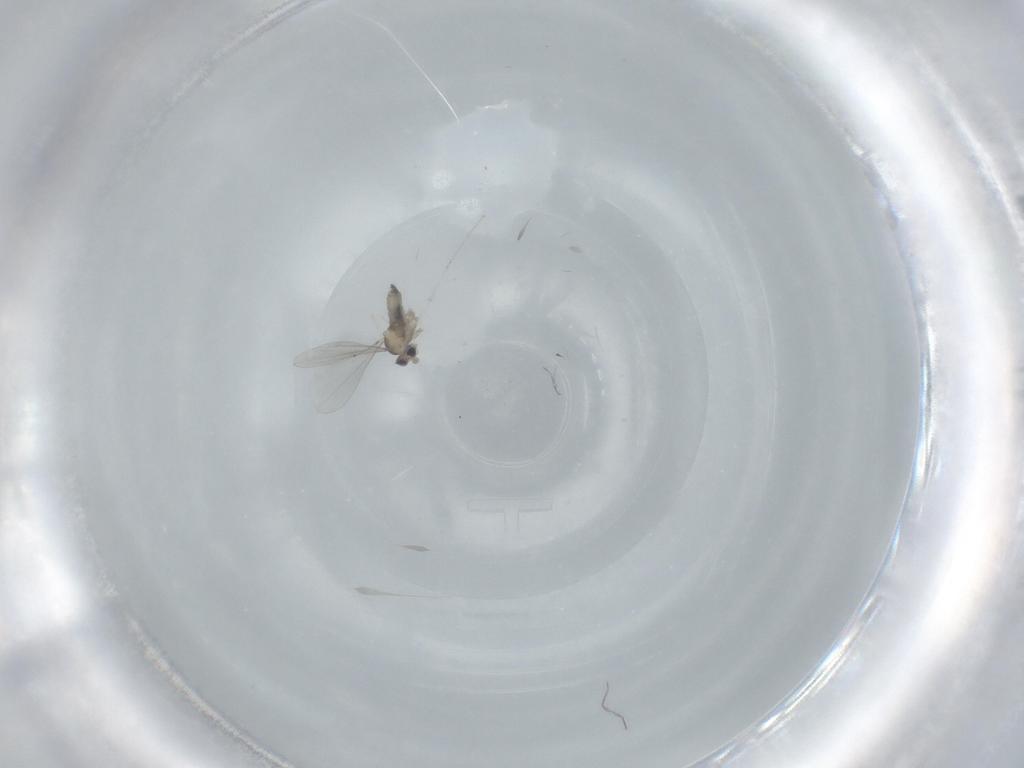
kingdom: Animalia
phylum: Arthropoda
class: Insecta
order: Diptera
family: Cecidomyiidae
